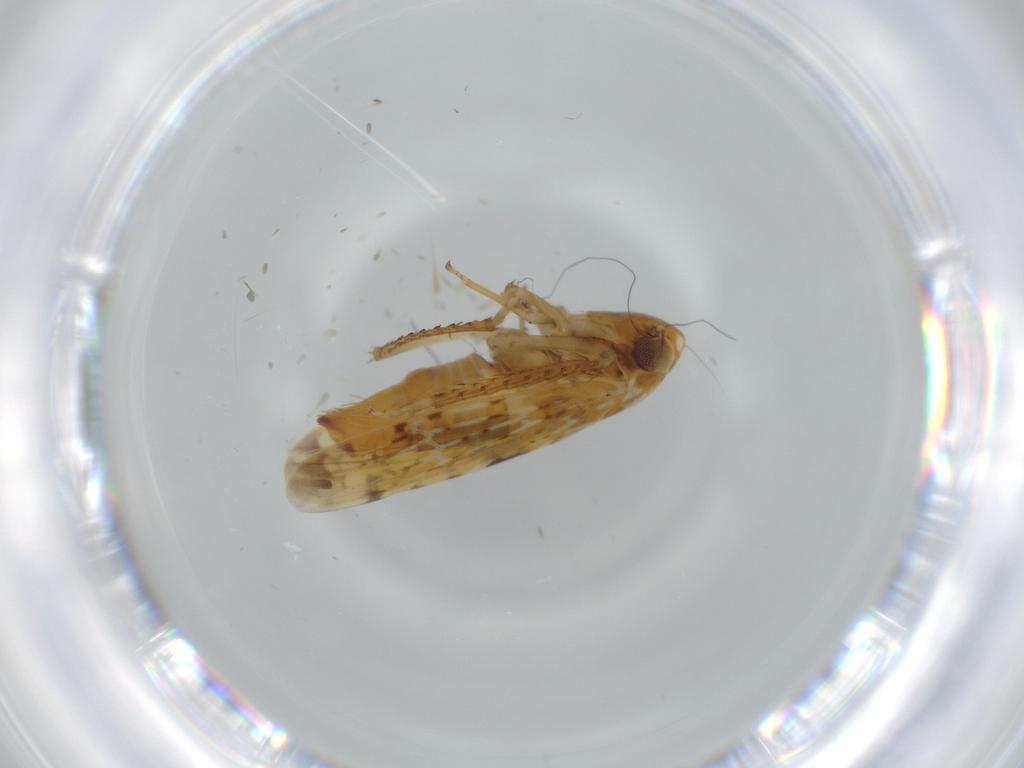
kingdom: Animalia
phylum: Arthropoda
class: Insecta
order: Hemiptera
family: Cicadellidae
